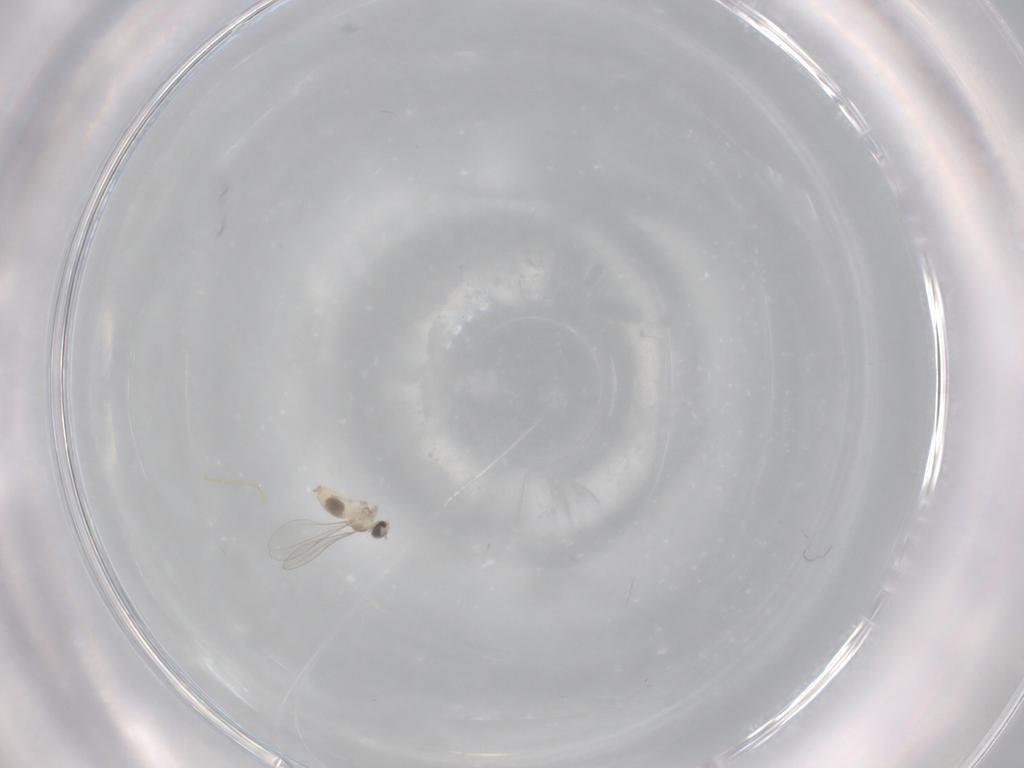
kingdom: Animalia
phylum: Arthropoda
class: Insecta
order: Diptera
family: Cecidomyiidae
